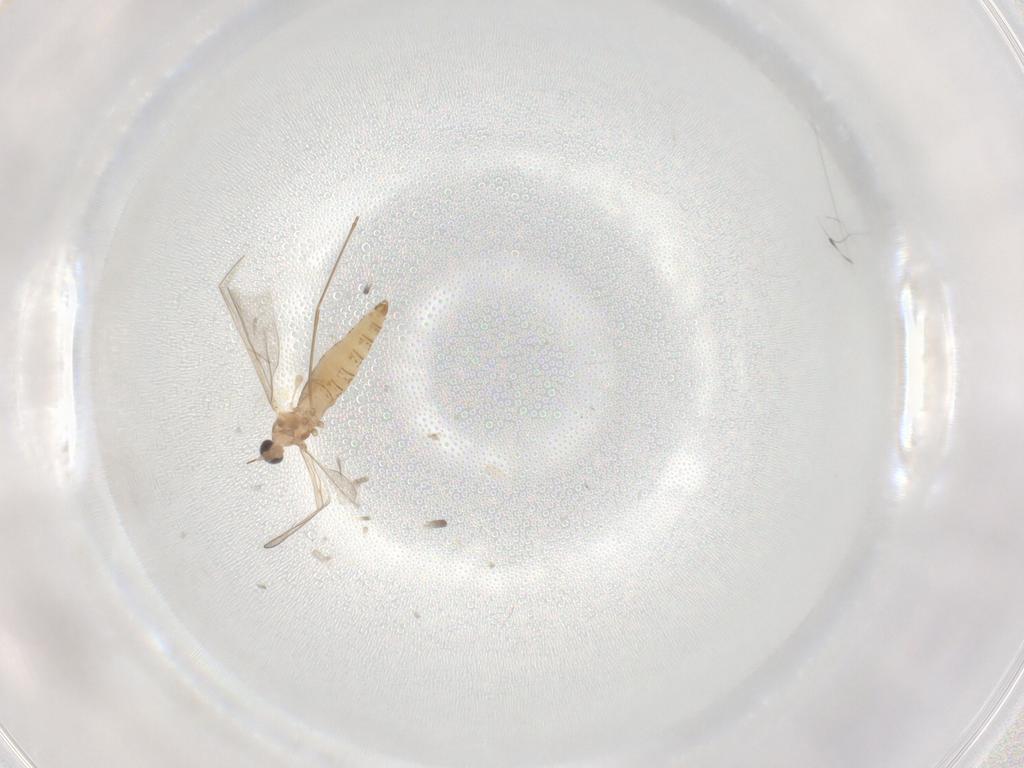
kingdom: Animalia
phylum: Arthropoda
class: Insecta
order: Diptera
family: Cecidomyiidae
